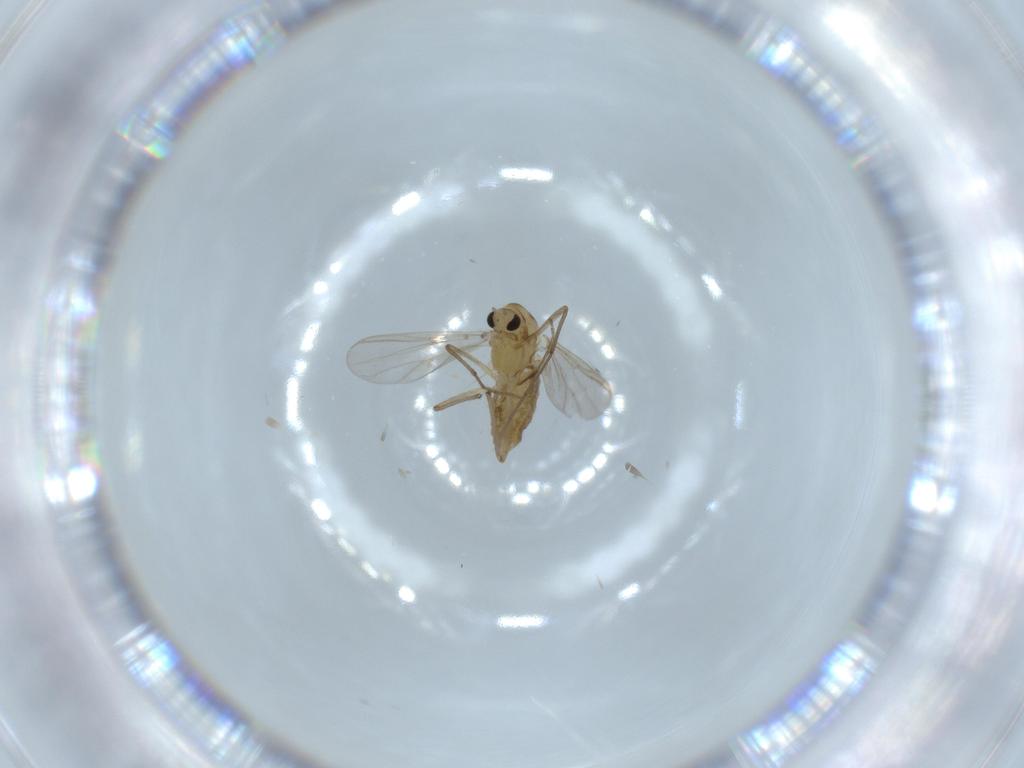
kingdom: Animalia
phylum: Arthropoda
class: Insecta
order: Diptera
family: Chironomidae
